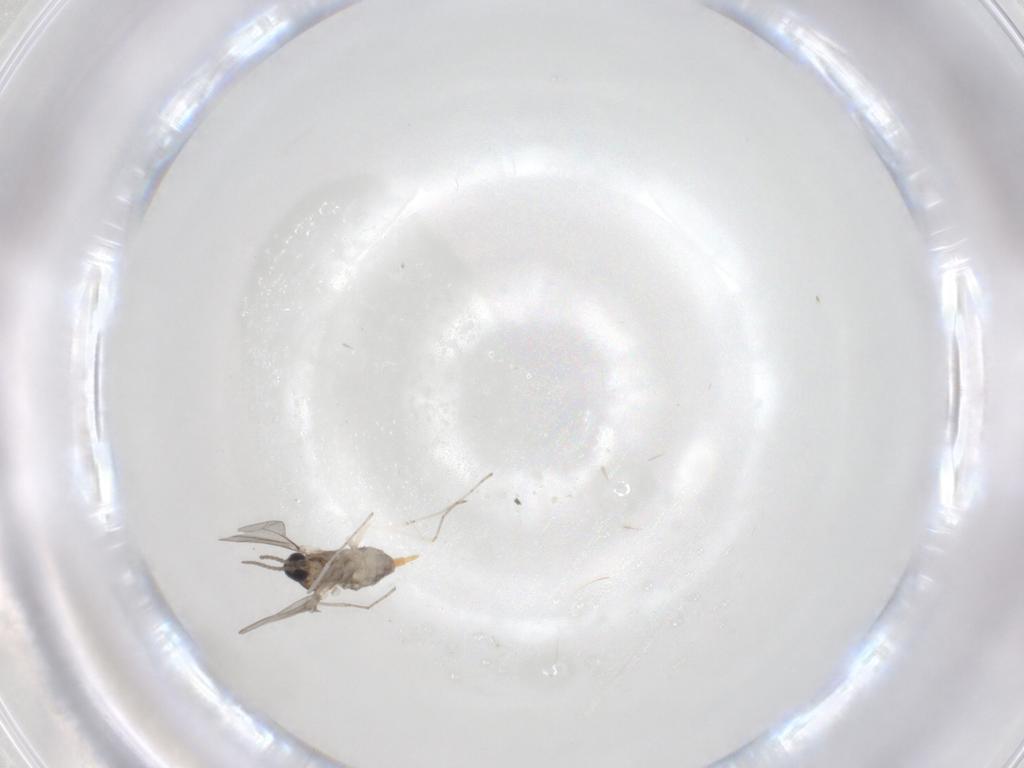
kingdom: Animalia
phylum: Arthropoda
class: Insecta
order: Diptera
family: Cecidomyiidae
